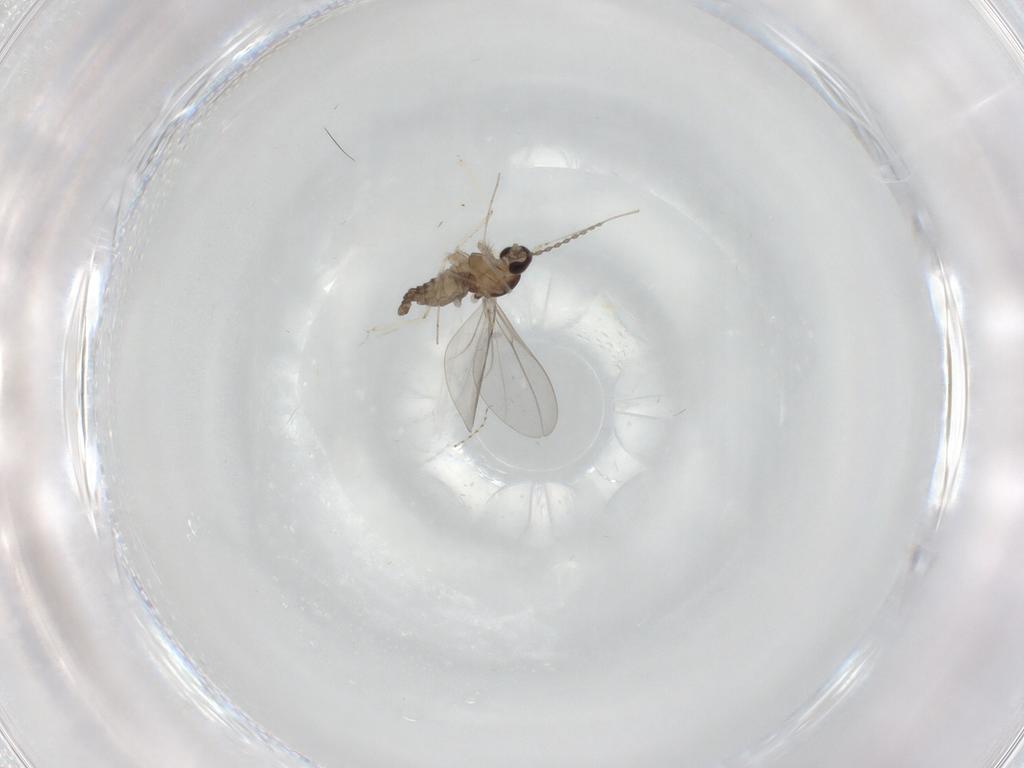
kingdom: Animalia
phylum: Arthropoda
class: Insecta
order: Diptera
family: Cecidomyiidae
